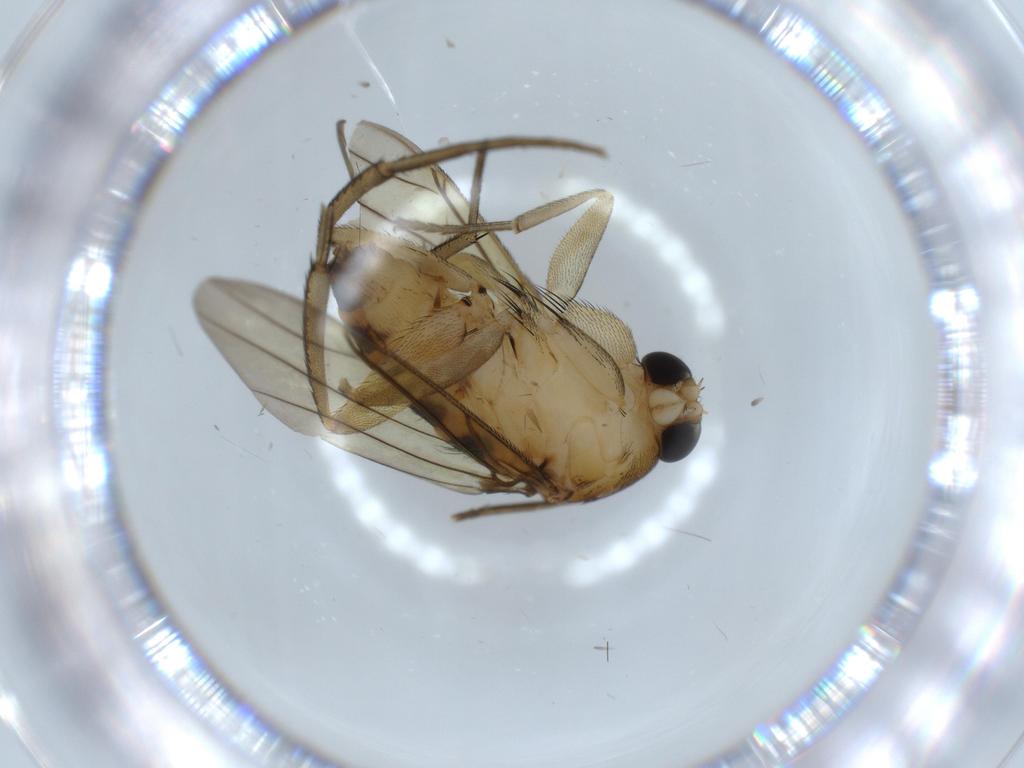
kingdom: Animalia
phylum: Arthropoda
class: Insecta
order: Diptera
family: Phoridae
